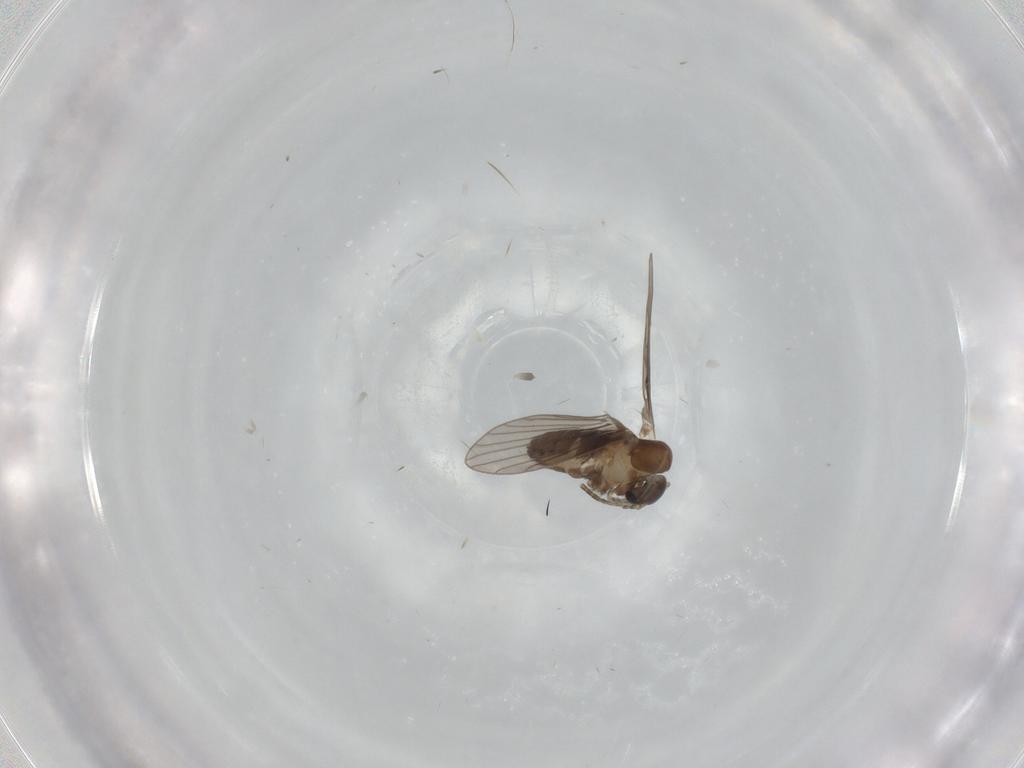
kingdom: Animalia
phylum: Arthropoda
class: Insecta
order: Diptera
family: Psychodidae
